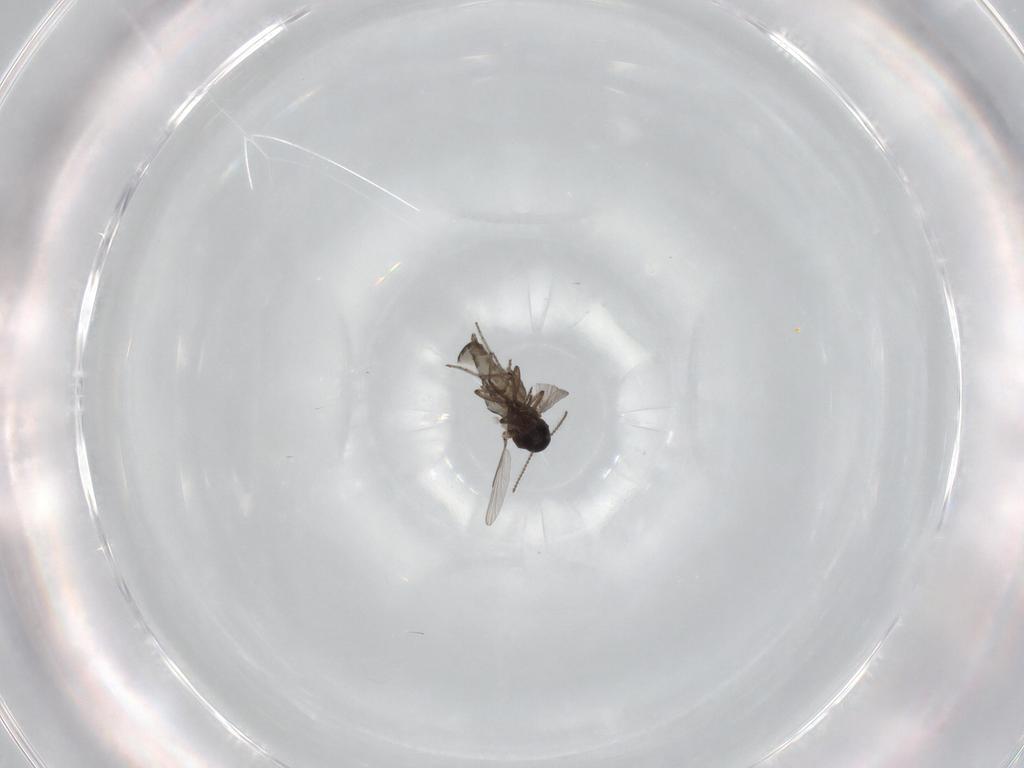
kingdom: Animalia
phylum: Arthropoda
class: Insecta
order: Diptera
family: Ceratopogonidae
